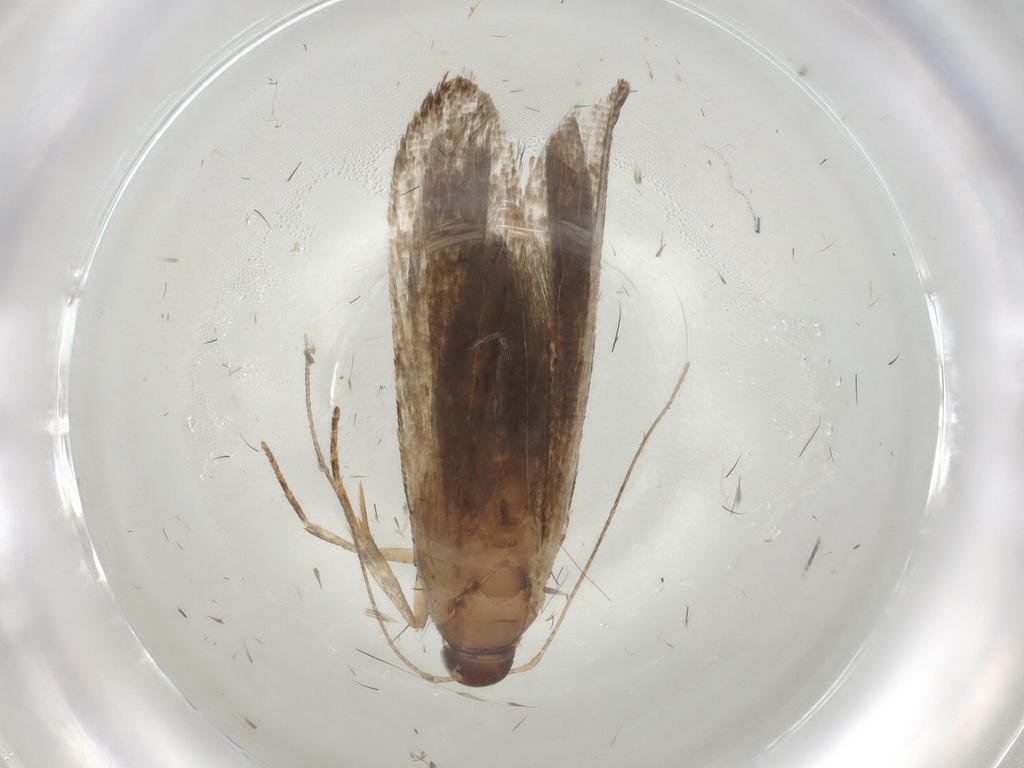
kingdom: Animalia
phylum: Arthropoda
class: Insecta
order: Lepidoptera
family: Gelechiidae
